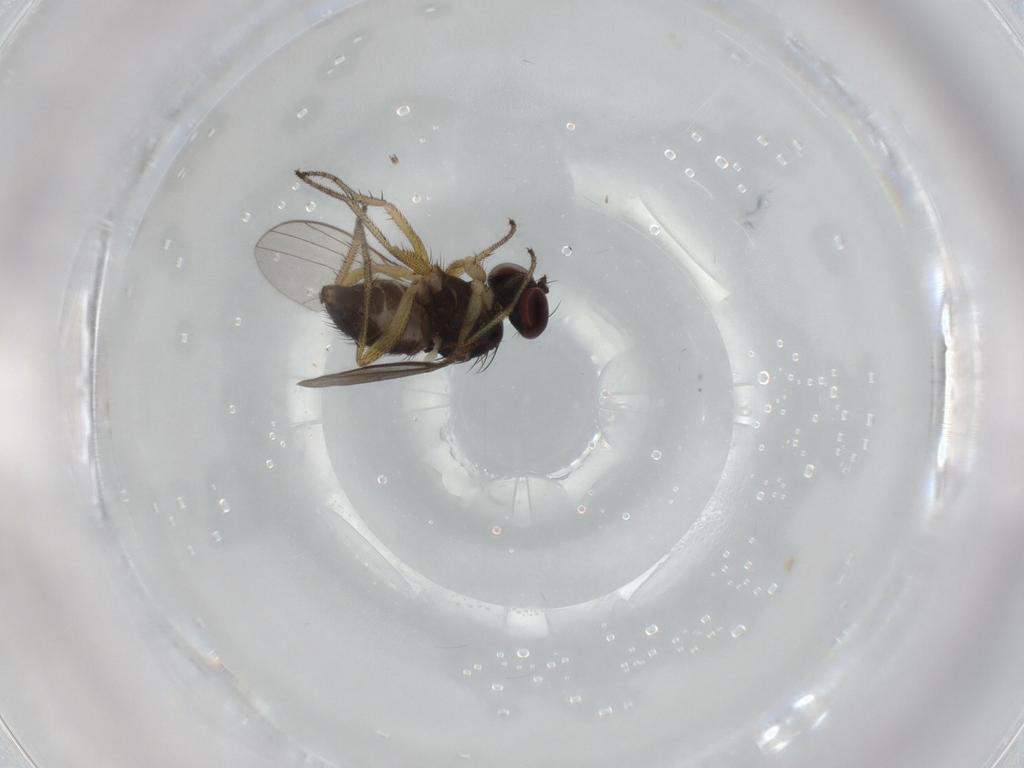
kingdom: Animalia
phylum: Arthropoda
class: Insecta
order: Diptera
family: Dolichopodidae
